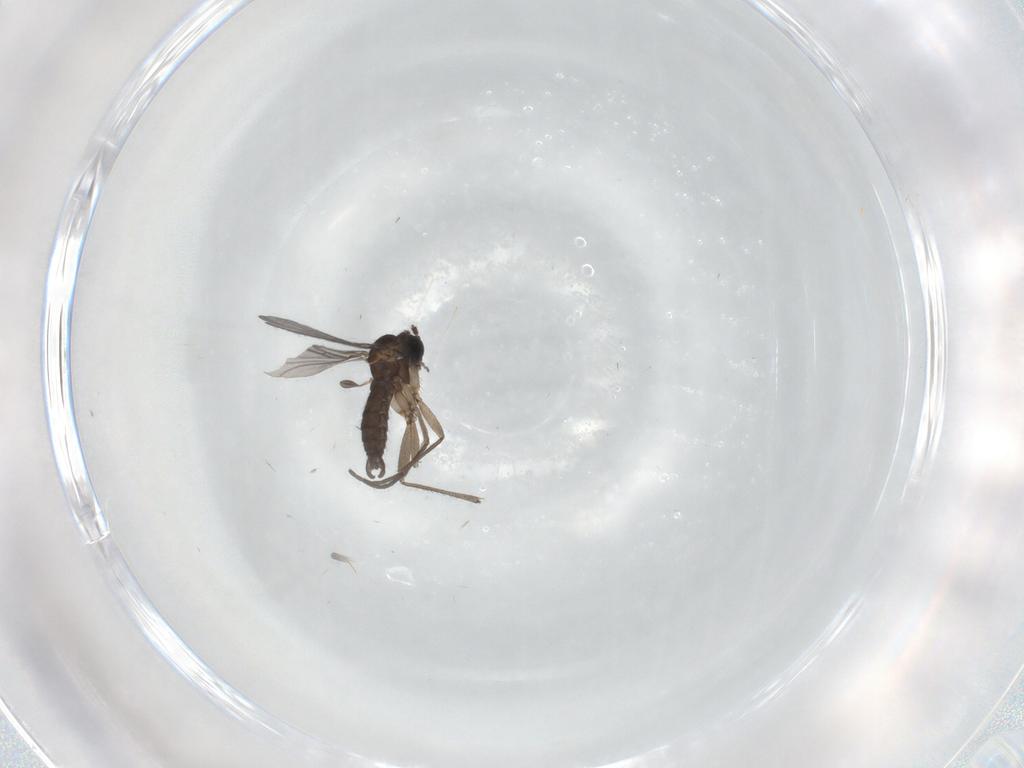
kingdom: Animalia
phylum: Arthropoda
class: Insecta
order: Diptera
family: Sciaridae
